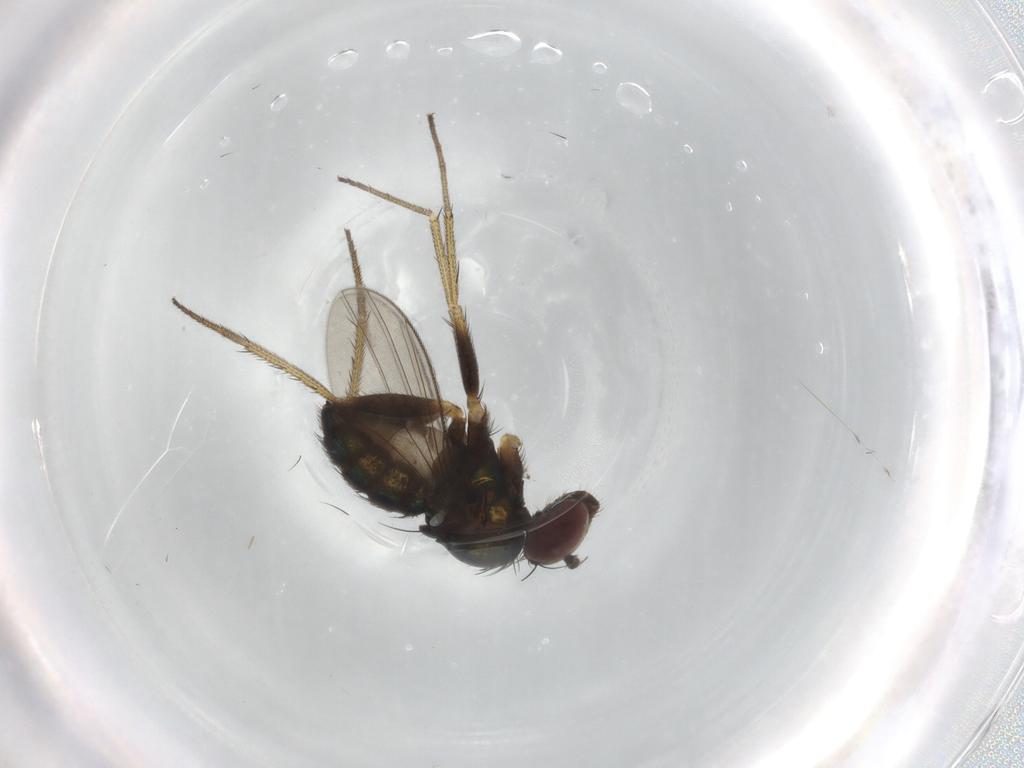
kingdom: Animalia
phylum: Arthropoda
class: Insecta
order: Diptera
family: Dolichopodidae
